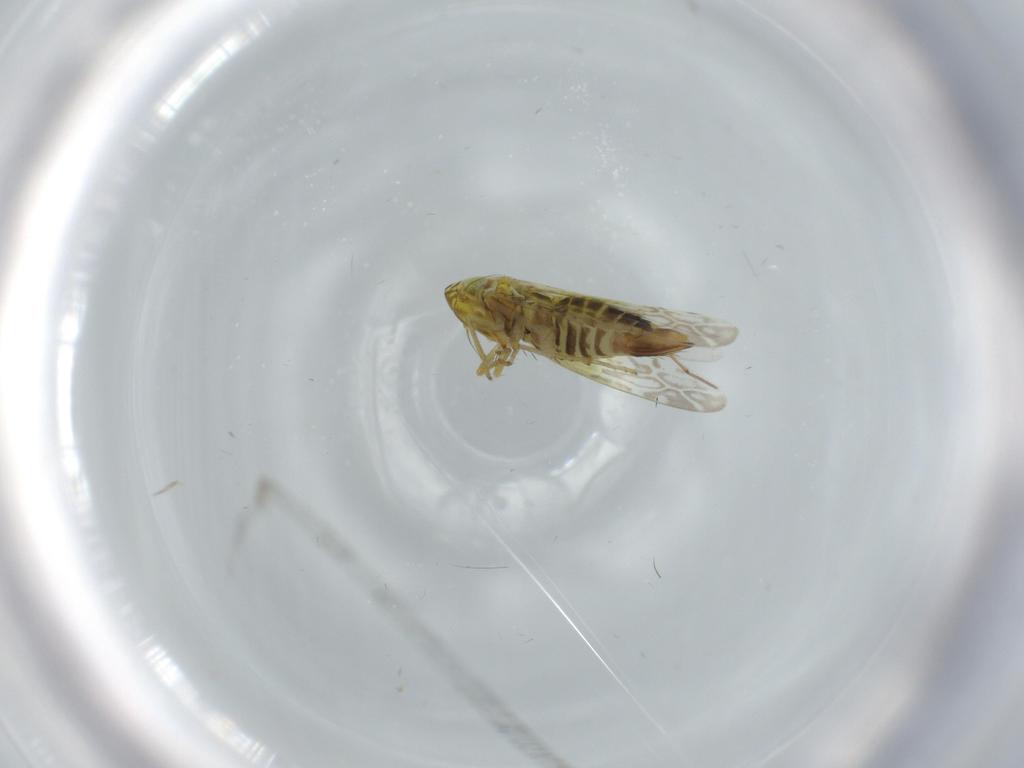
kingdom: Animalia
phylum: Arthropoda
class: Insecta
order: Hemiptera
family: Cicadellidae
